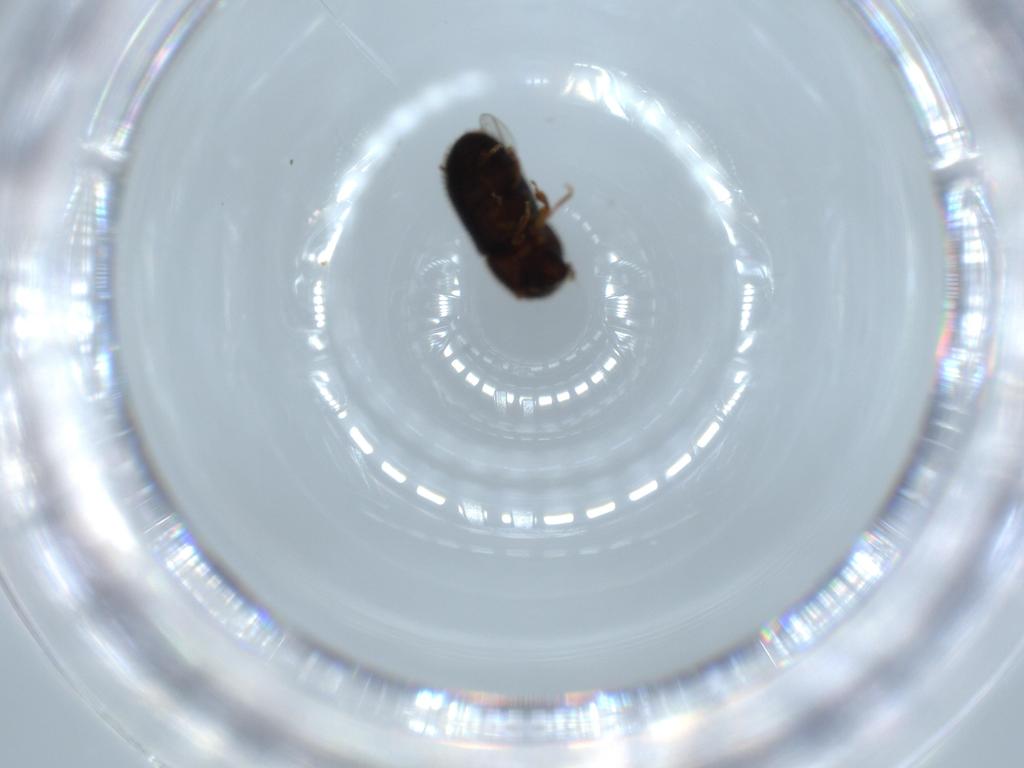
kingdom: Animalia
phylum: Arthropoda
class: Insecta
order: Coleoptera
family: Curculionidae
